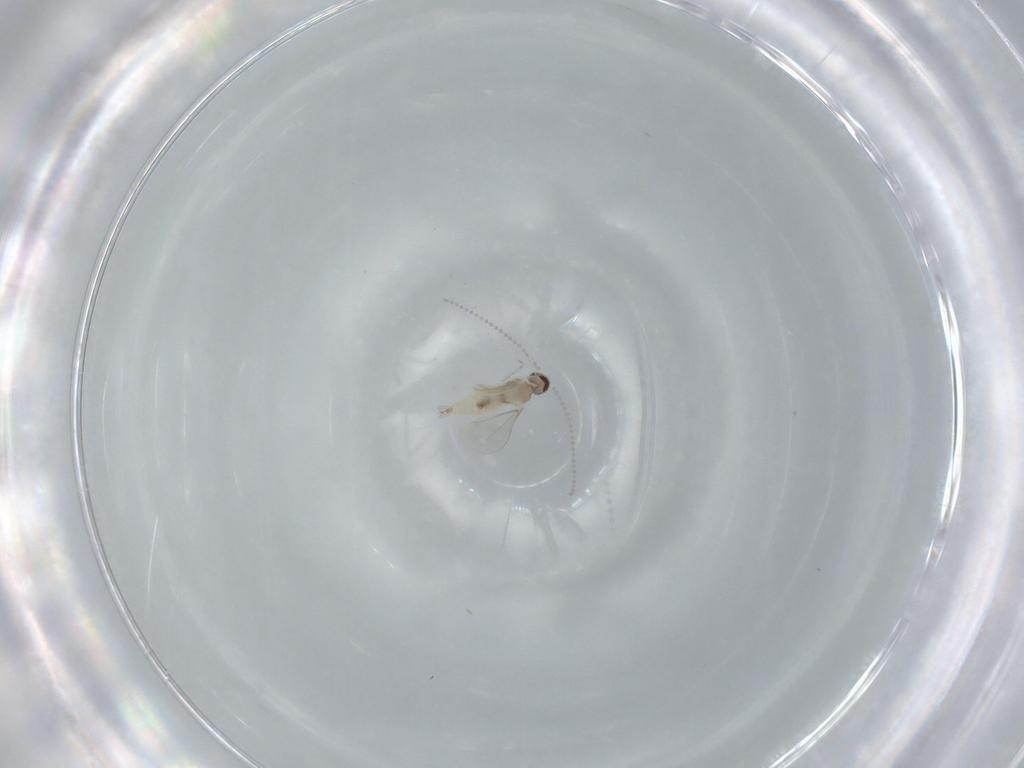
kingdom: Animalia
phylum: Arthropoda
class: Insecta
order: Diptera
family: Cecidomyiidae
